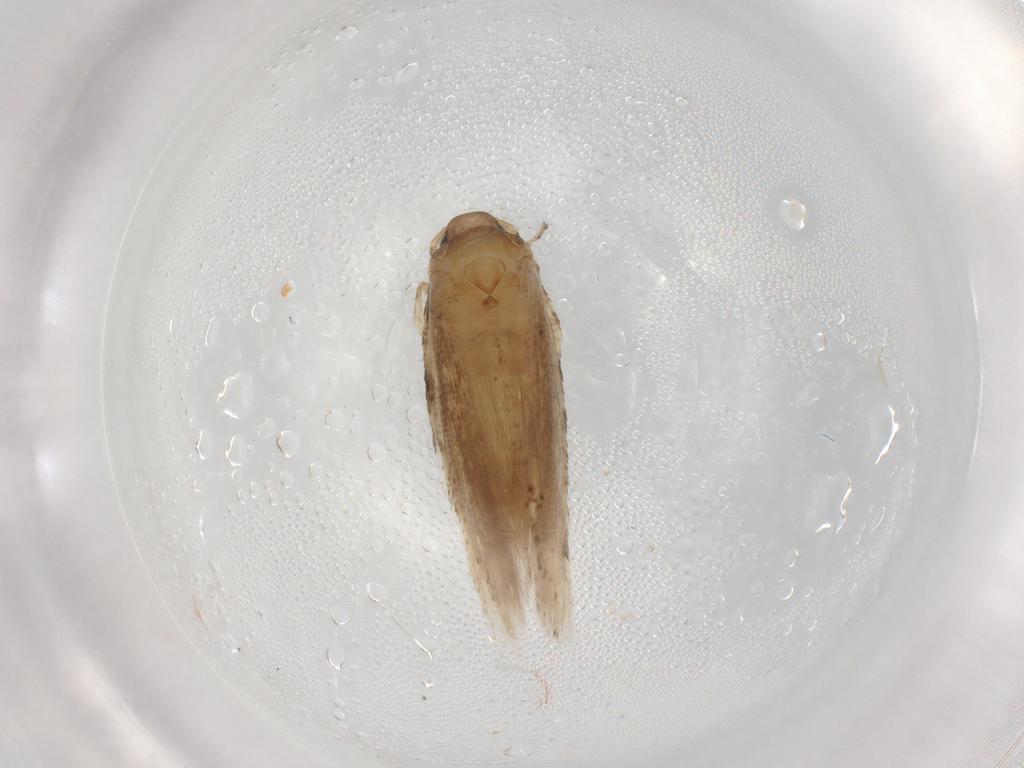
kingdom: Animalia
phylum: Arthropoda
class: Insecta
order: Lepidoptera
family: Gelechiidae
